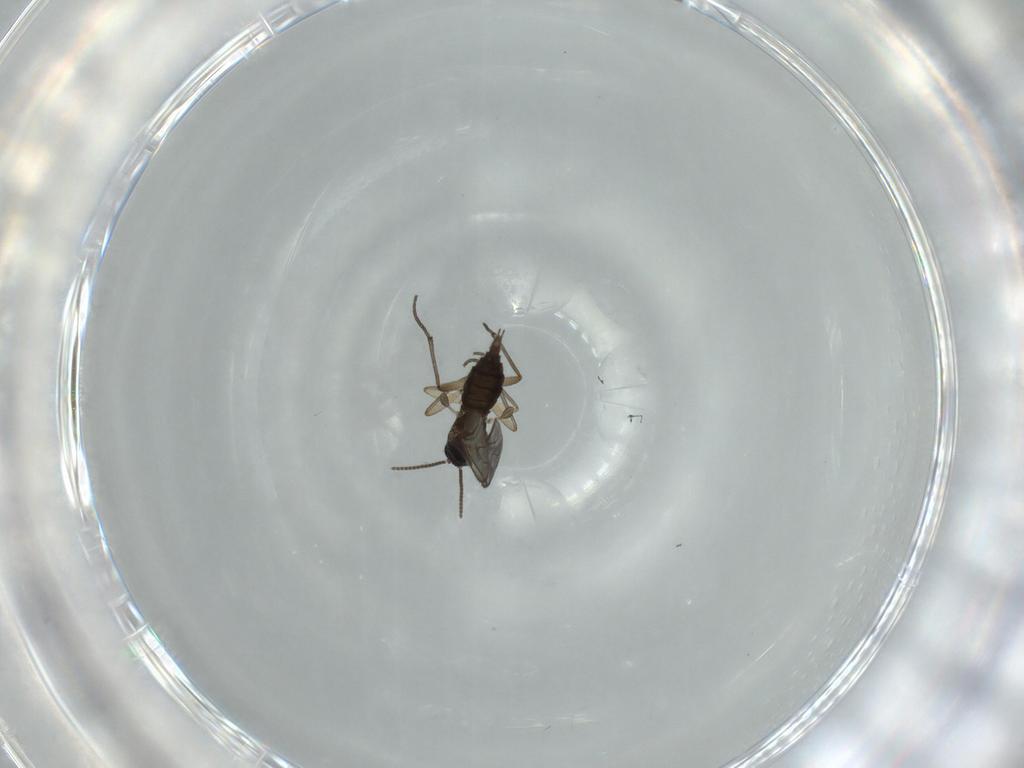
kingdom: Animalia
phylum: Arthropoda
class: Insecta
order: Diptera
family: Sciaridae
